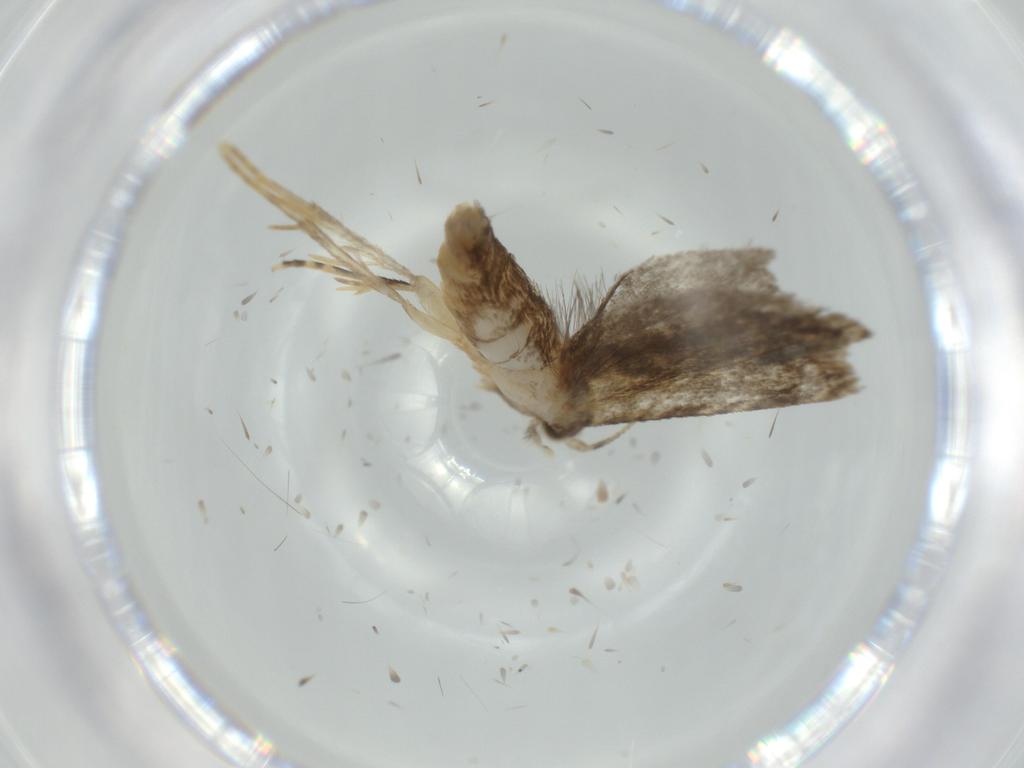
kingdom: Animalia
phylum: Arthropoda
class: Insecta
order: Lepidoptera
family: Tineidae
